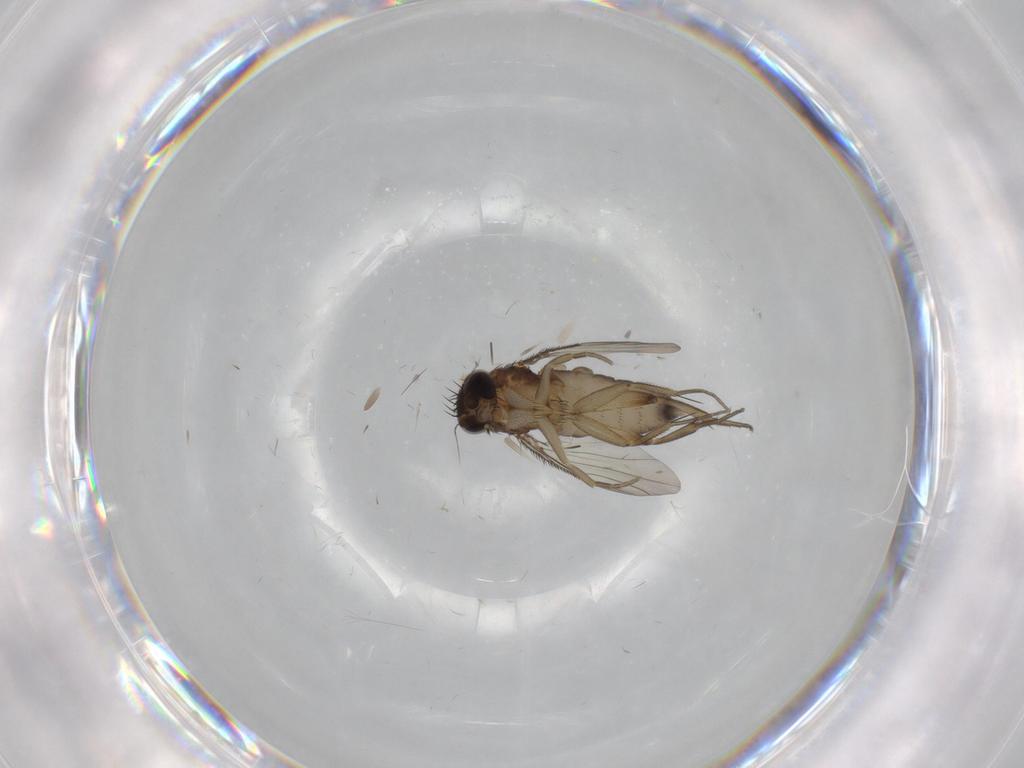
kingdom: Animalia
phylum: Arthropoda
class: Insecta
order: Diptera
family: Phoridae
